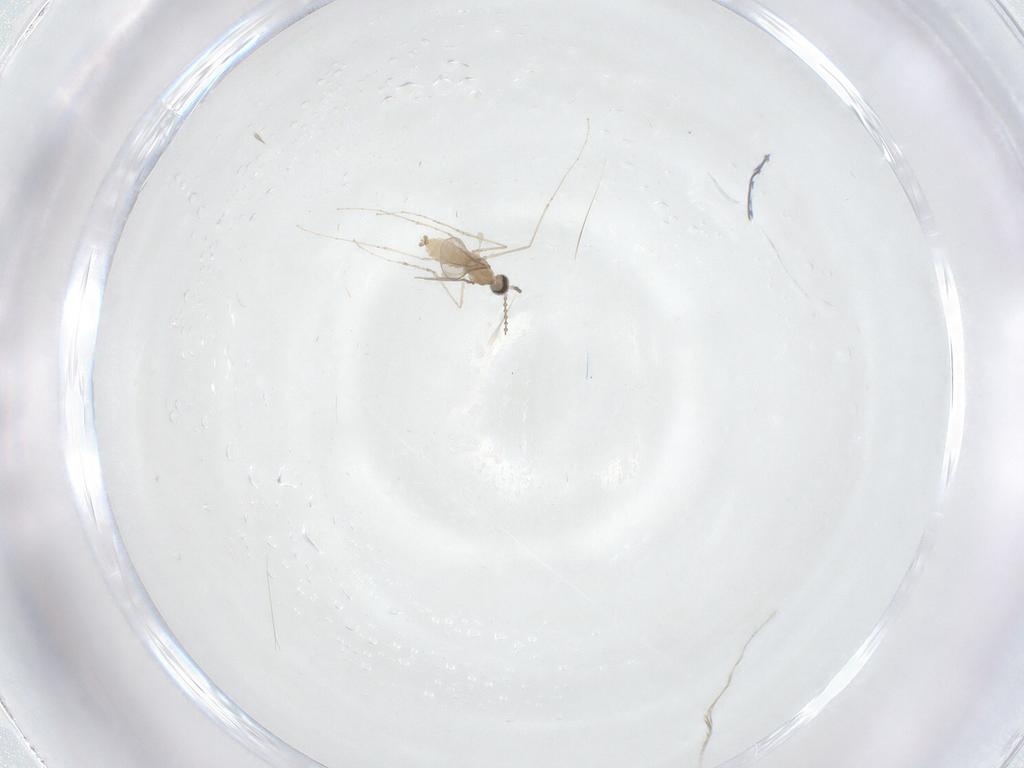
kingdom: Animalia
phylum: Arthropoda
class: Insecta
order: Diptera
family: Cecidomyiidae
